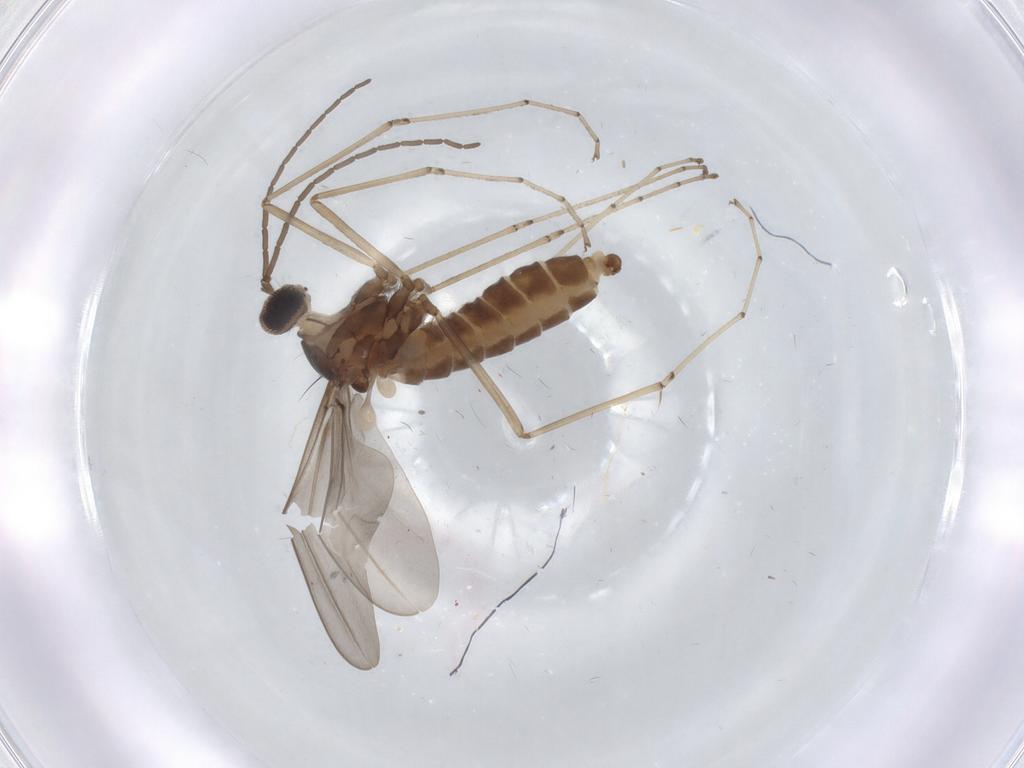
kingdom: Animalia
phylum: Arthropoda
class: Insecta
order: Diptera
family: Cecidomyiidae
